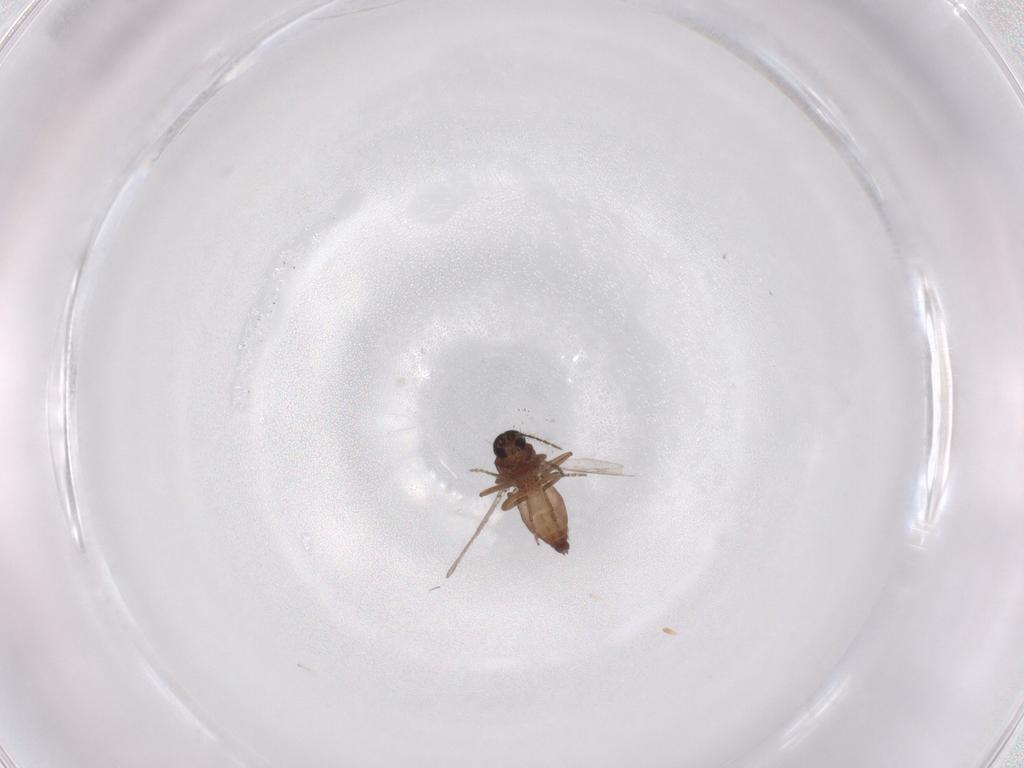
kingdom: Animalia
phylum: Arthropoda
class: Insecta
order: Diptera
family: Ceratopogonidae
